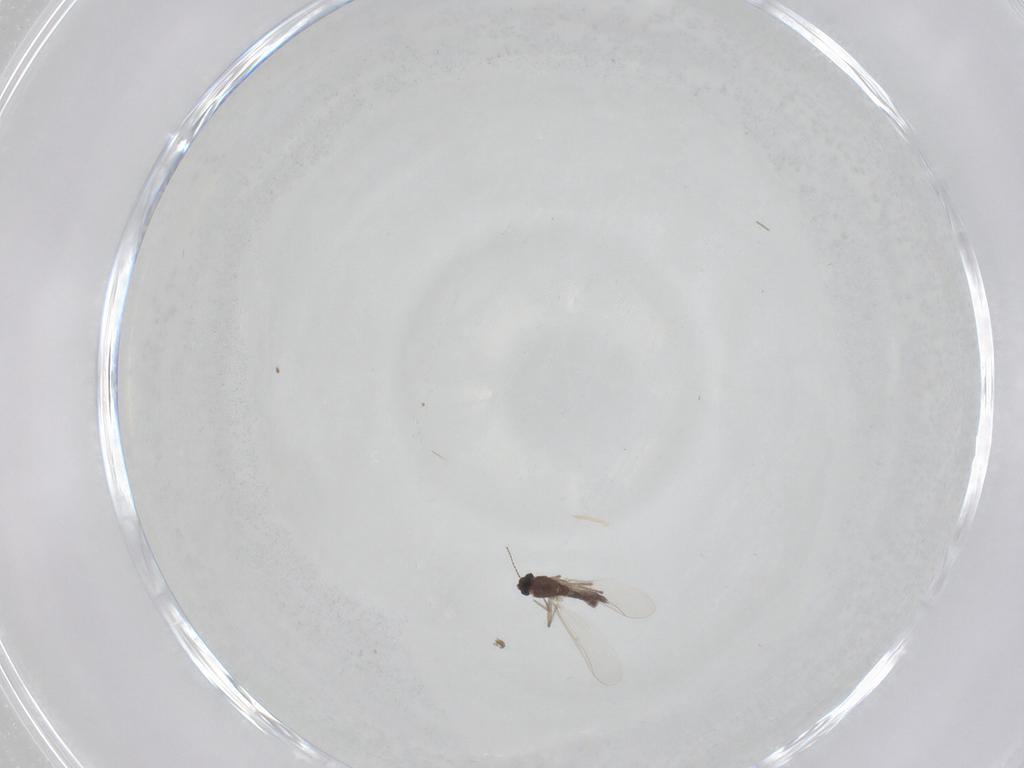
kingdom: Animalia
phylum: Arthropoda
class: Insecta
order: Diptera
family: Chironomidae
